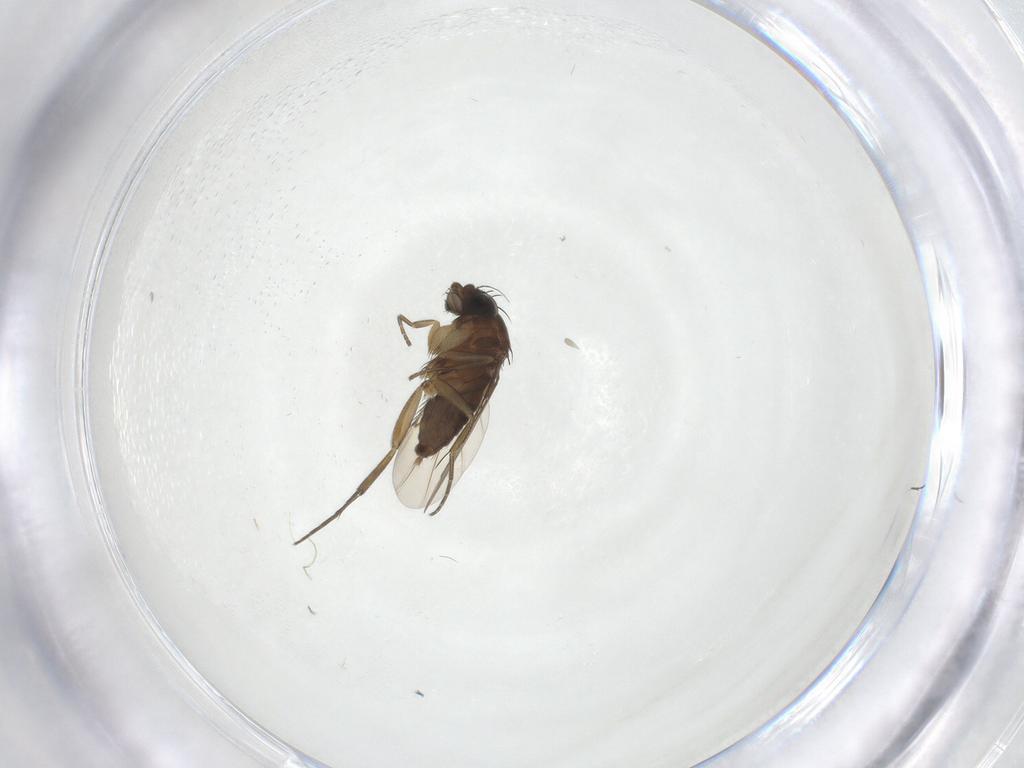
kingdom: Animalia
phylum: Arthropoda
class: Insecta
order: Diptera
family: Phoridae
